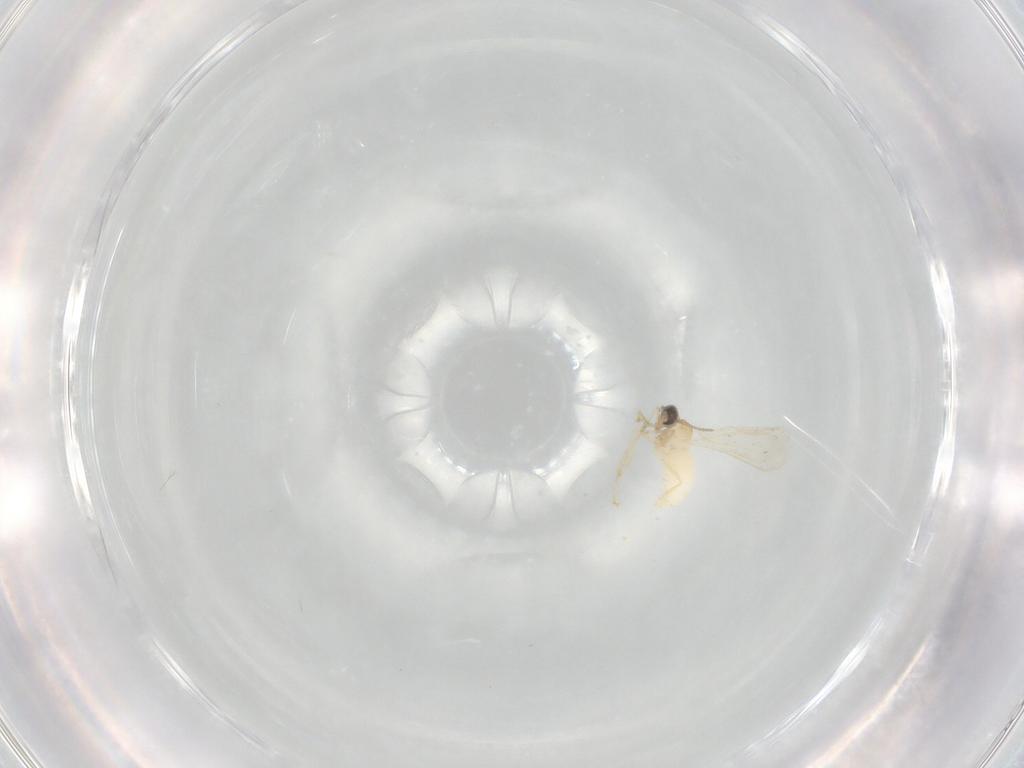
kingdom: Animalia
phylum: Arthropoda
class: Insecta
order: Diptera
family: Cecidomyiidae
